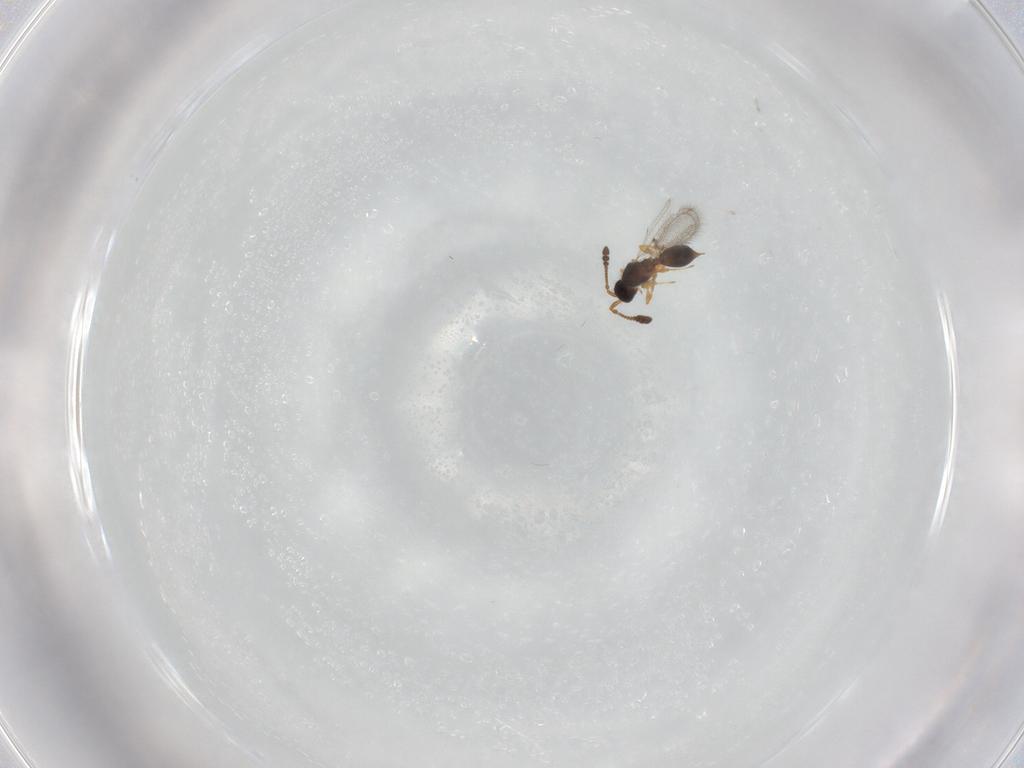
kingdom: Animalia
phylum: Arthropoda
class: Insecta
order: Hymenoptera
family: Diapriidae
